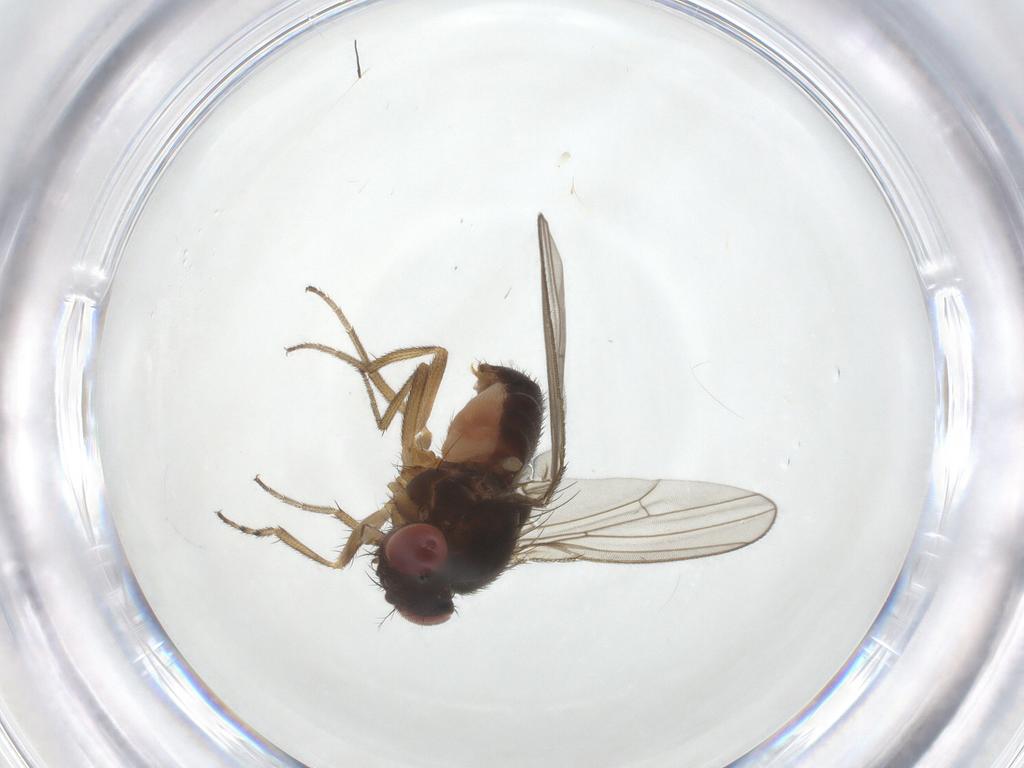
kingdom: Animalia
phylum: Arthropoda
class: Insecta
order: Diptera
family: Drosophilidae
